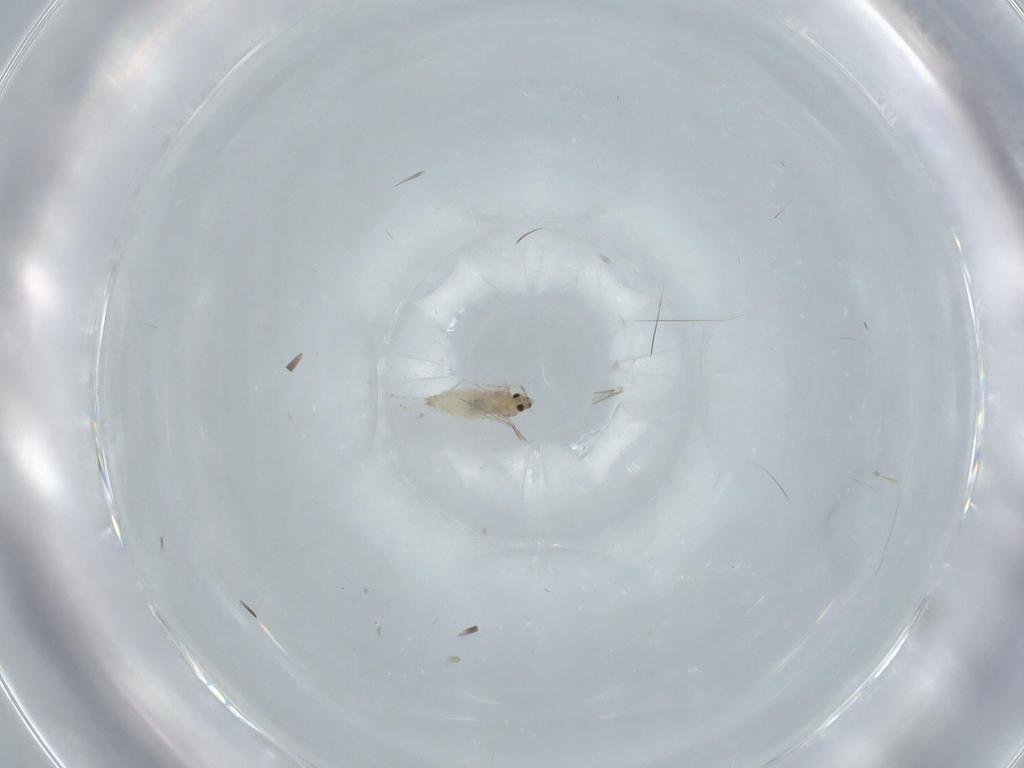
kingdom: Animalia
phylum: Arthropoda
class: Insecta
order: Diptera
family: Cecidomyiidae
